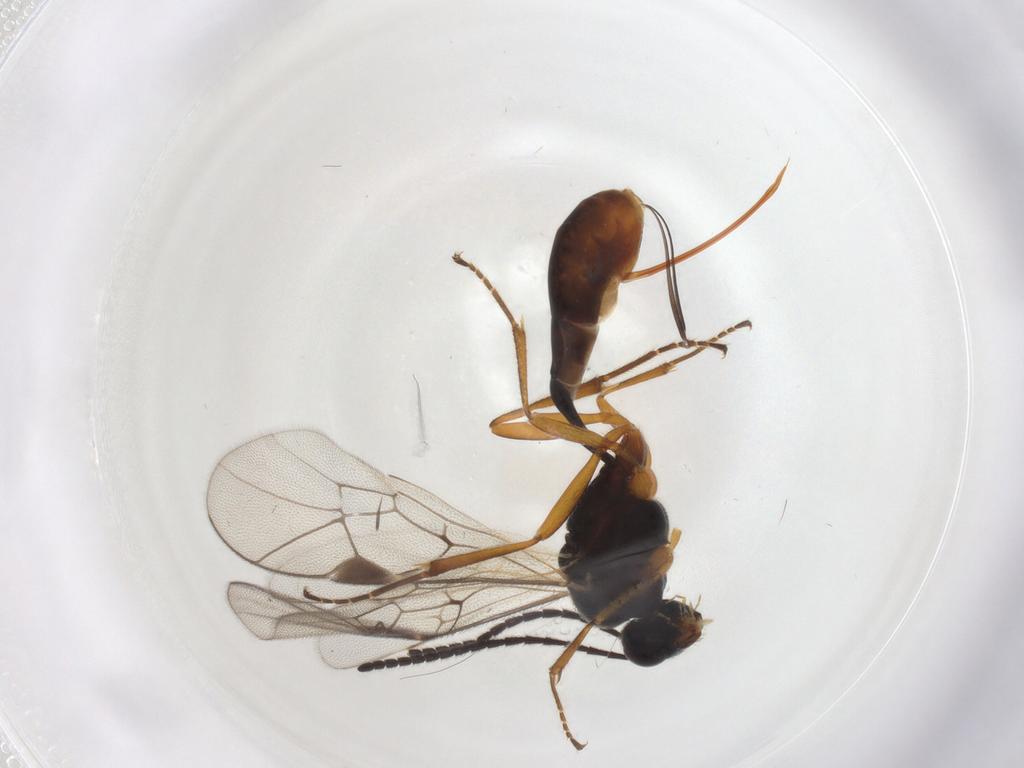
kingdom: Animalia
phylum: Arthropoda
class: Insecta
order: Hymenoptera
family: Ichneumonidae
